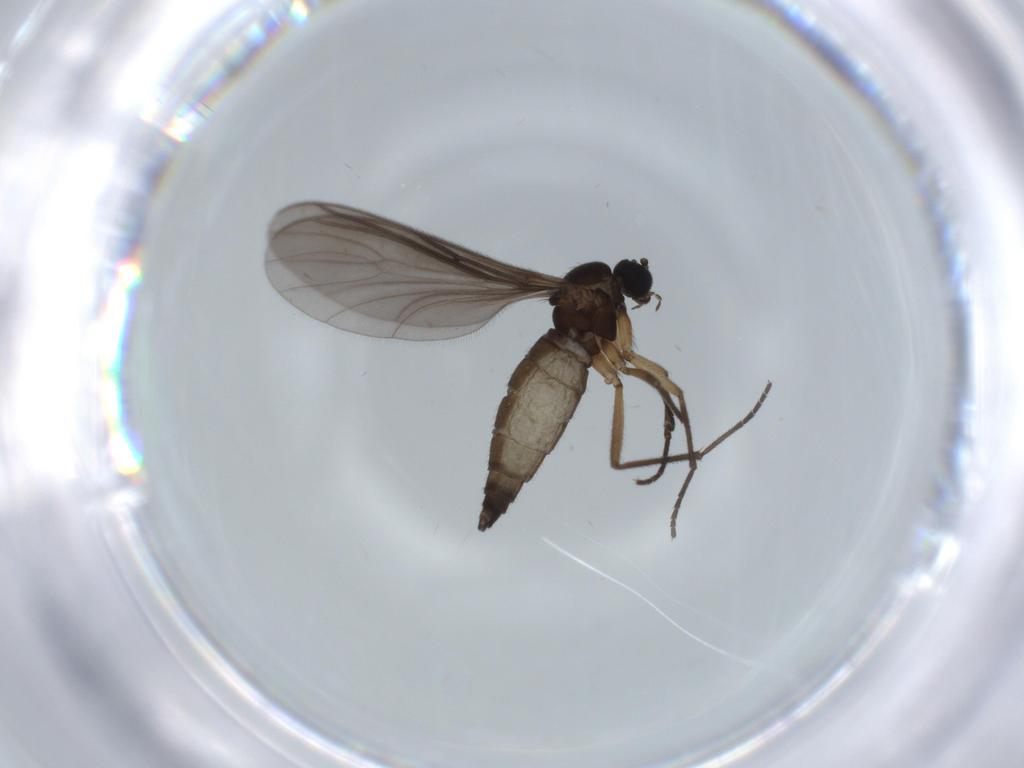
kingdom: Animalia
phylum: Arthropoda
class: Insecta
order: Diptera
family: Sciaridae
